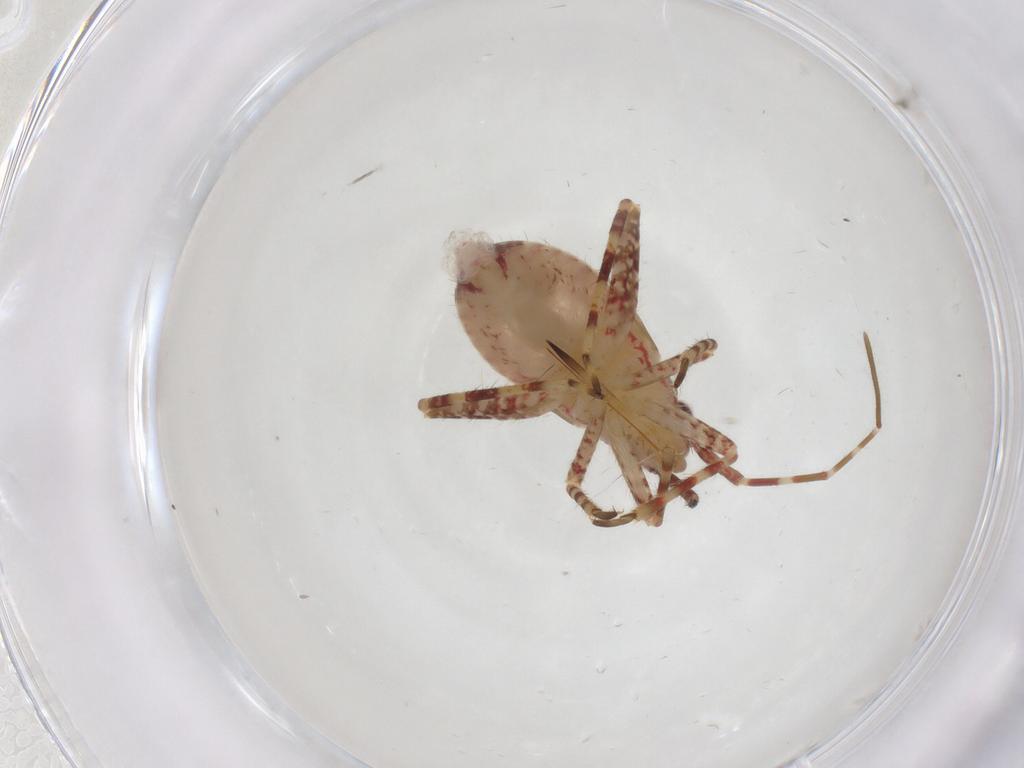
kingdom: Animalia
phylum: Arthropoda
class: Insecta
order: Hemiptera
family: Miridae
